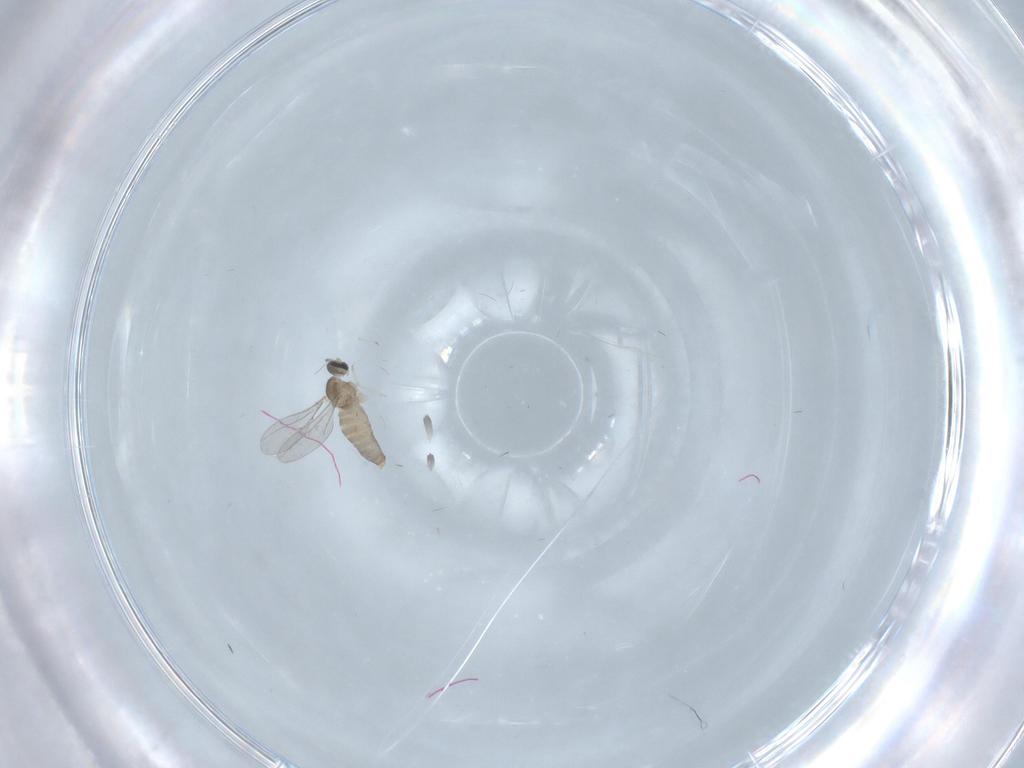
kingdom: Animalia
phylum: Arthropoda
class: Insecta
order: Diptera
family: Cecidomyiidae
